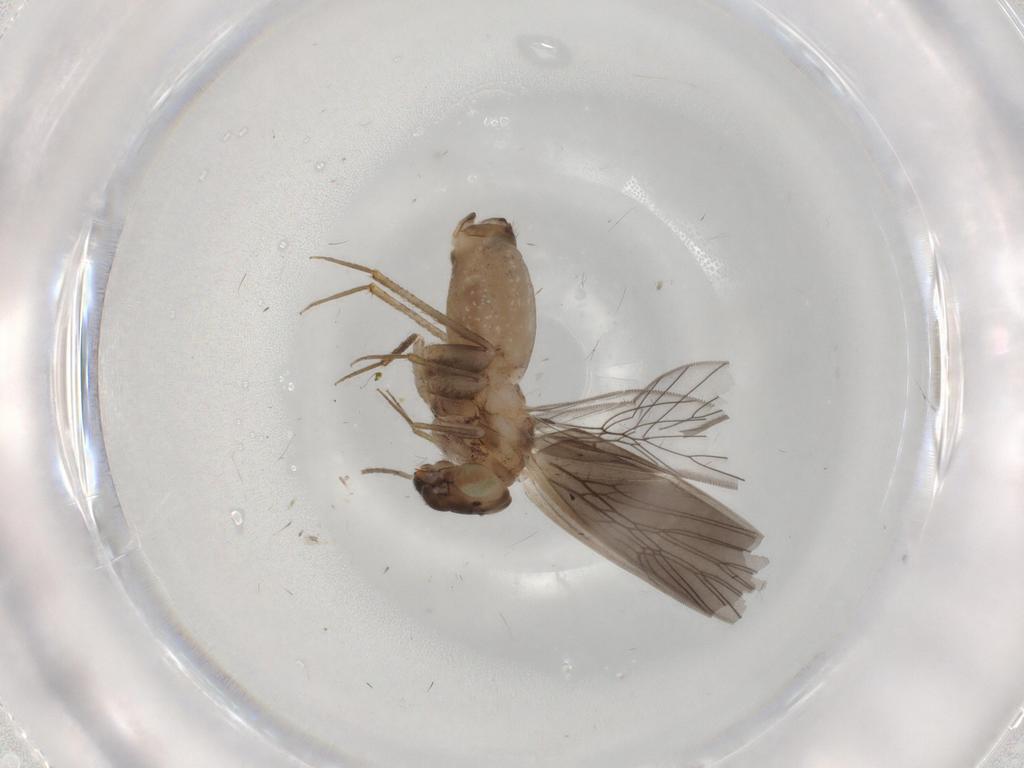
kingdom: Animalia
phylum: Arthropoda
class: Insecta
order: Psocodea
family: Lepidopsocidae
